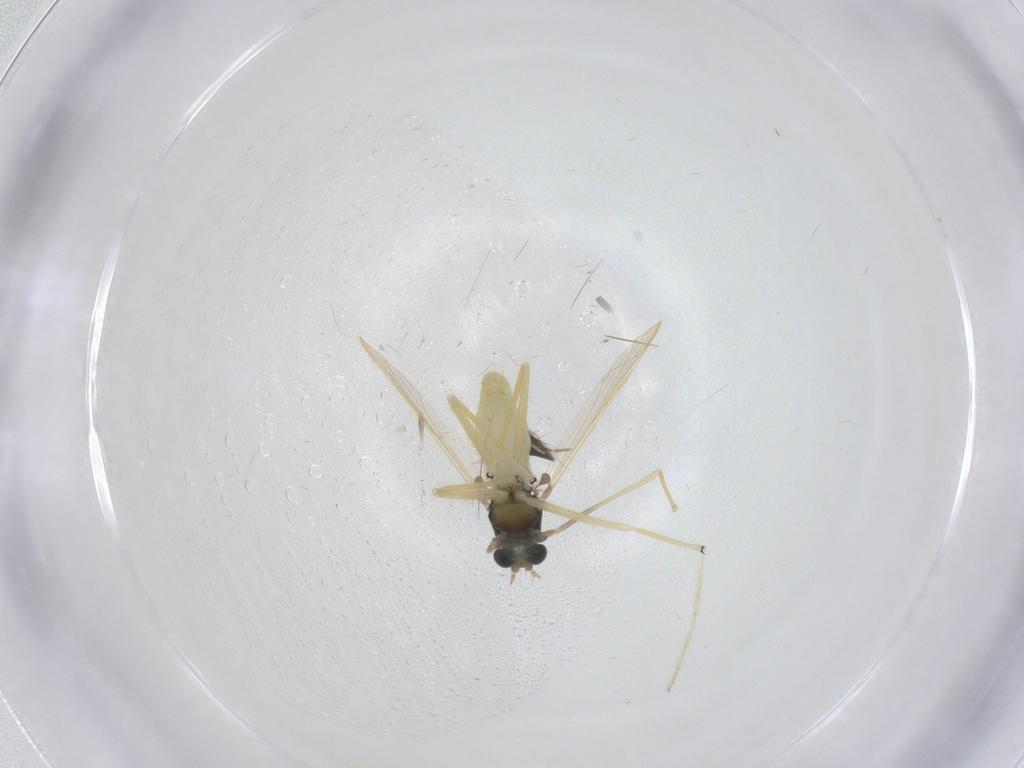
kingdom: Animalia
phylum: Arthropoda
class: Insecta
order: Diptera
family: Chironomidae
